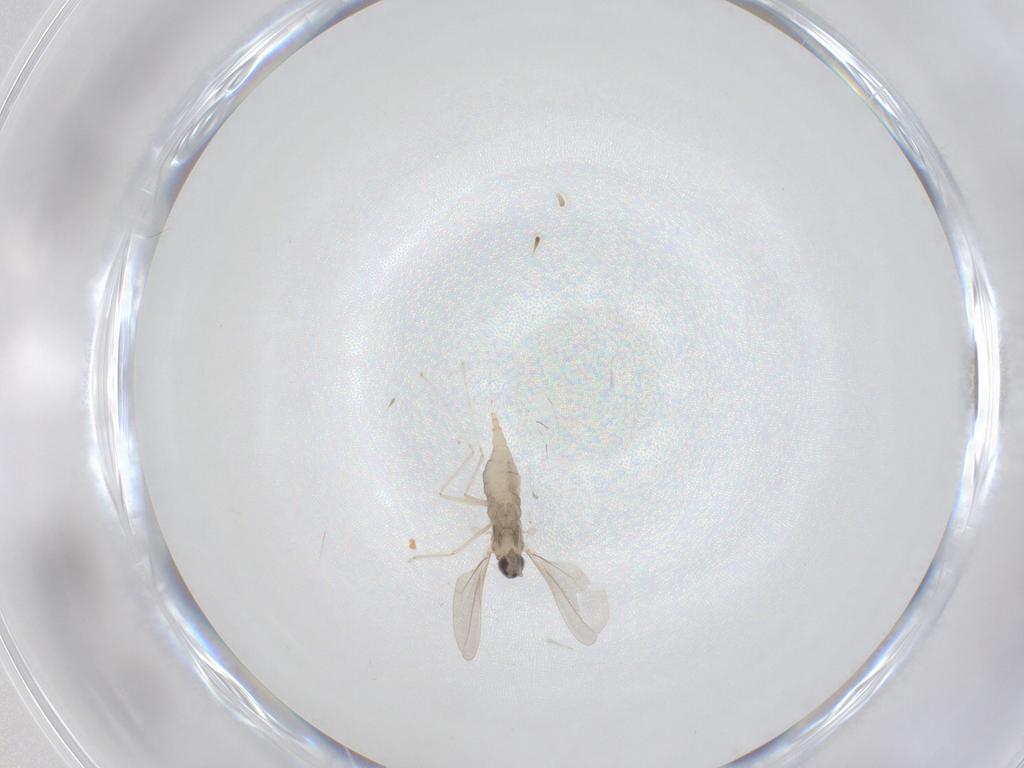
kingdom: Animalia
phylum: Arthropoda
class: Insecta
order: Diptera
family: Cecidomyiidae
